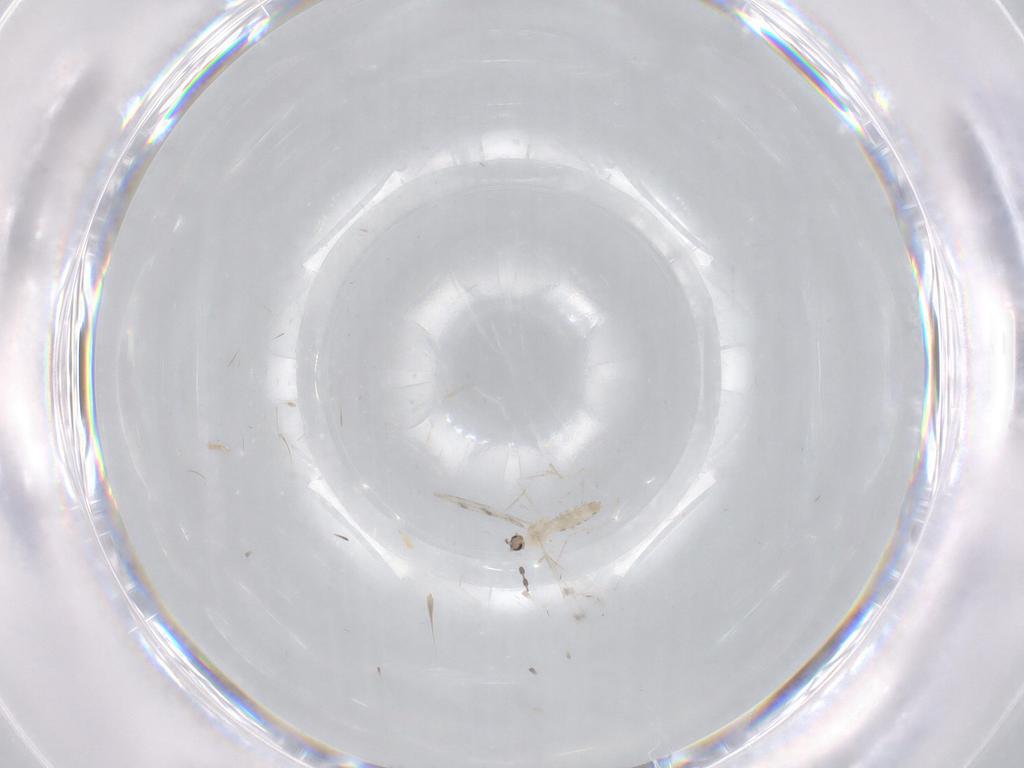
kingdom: Animalia
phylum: Arthropoda
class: Insecta
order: Diptera
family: Cecidomyiidae
